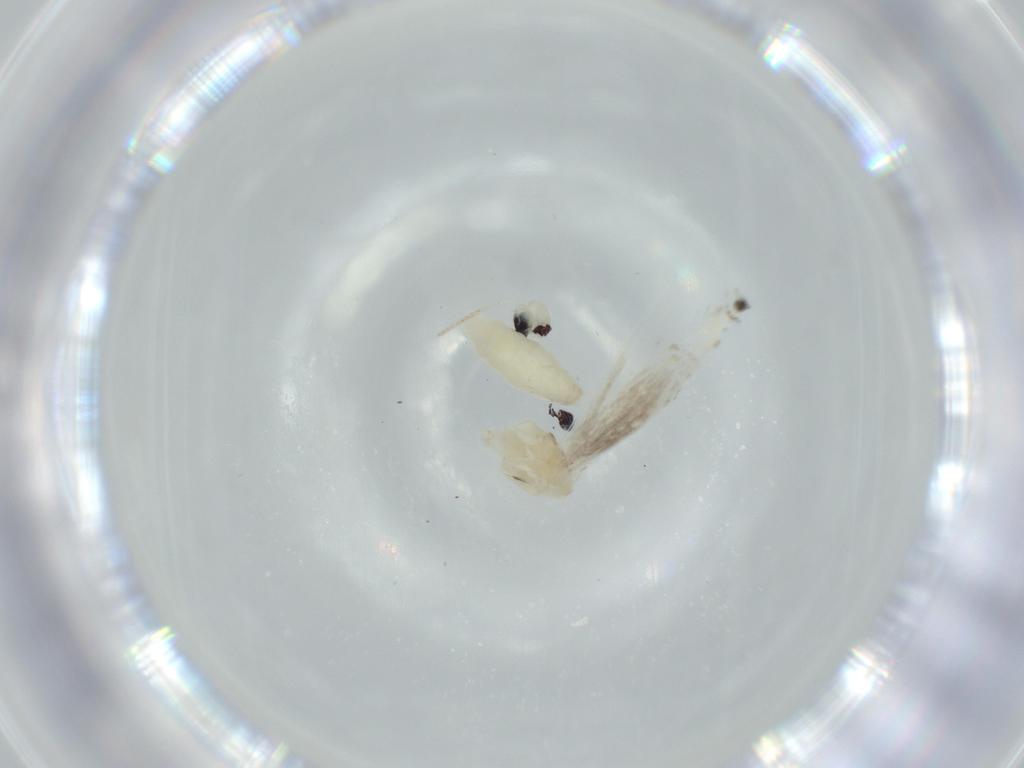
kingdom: Animalia
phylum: Arthropoda
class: Insecta
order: Lepidoptera
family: Gracillariidae
